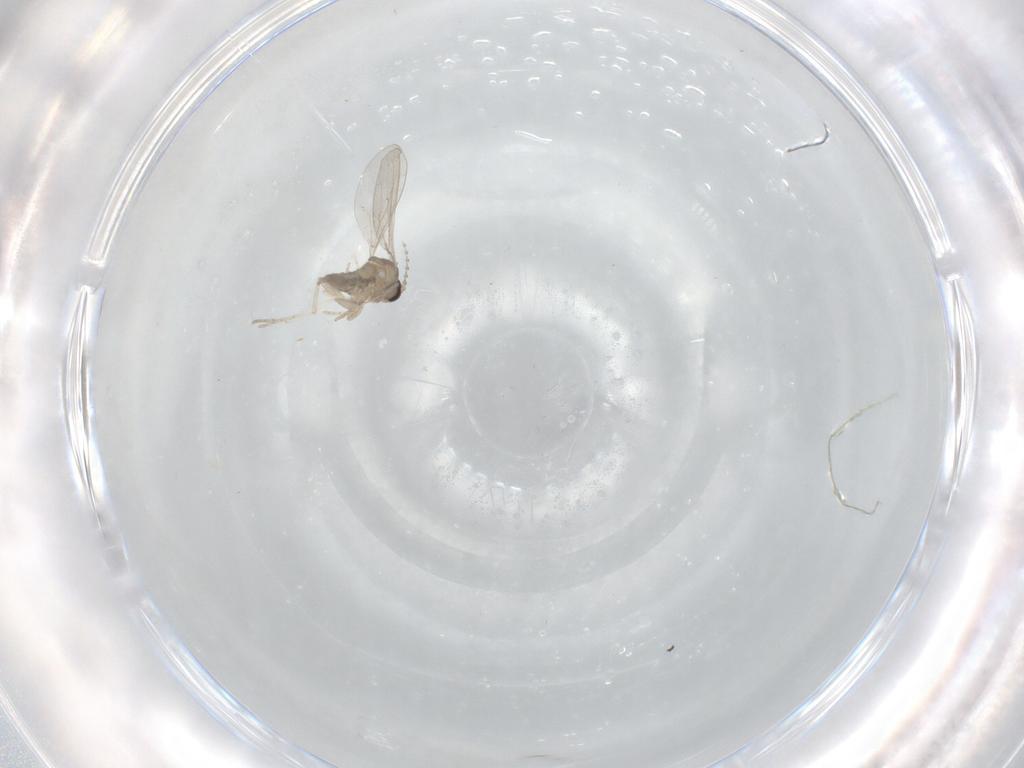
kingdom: Animalia
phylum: Arthropoda
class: Insecta
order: Diptera
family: Cecidomyiidae
